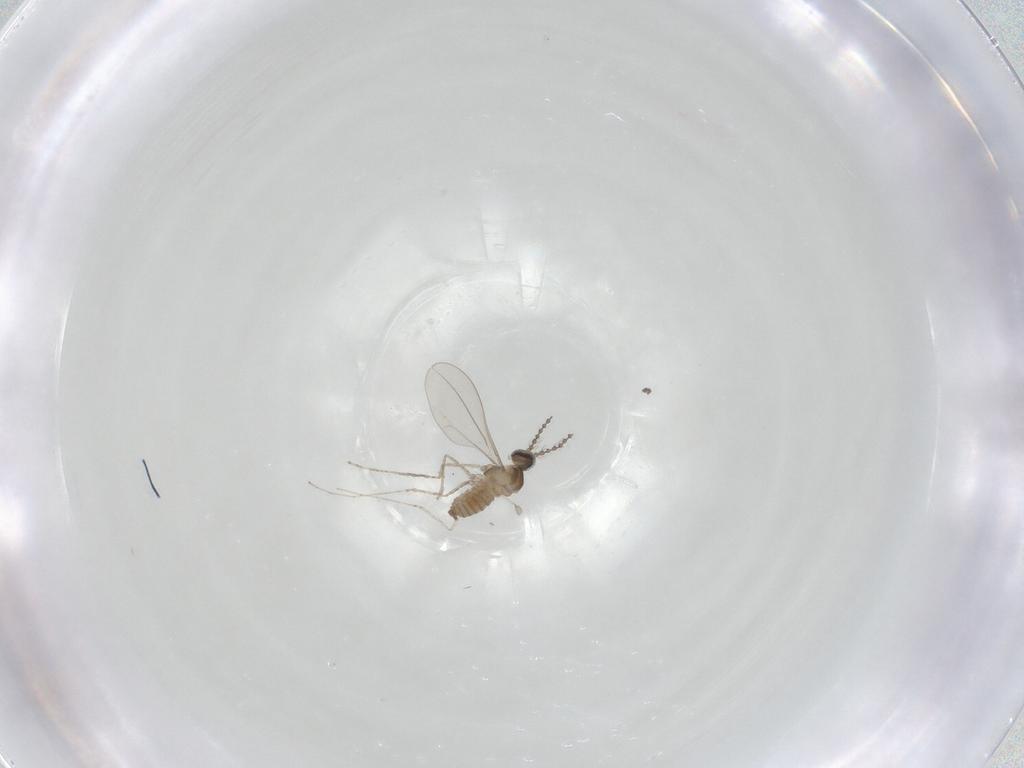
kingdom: Animalia
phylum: Arthropoda
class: Insecta
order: Diptera
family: Cecidomyiidae
